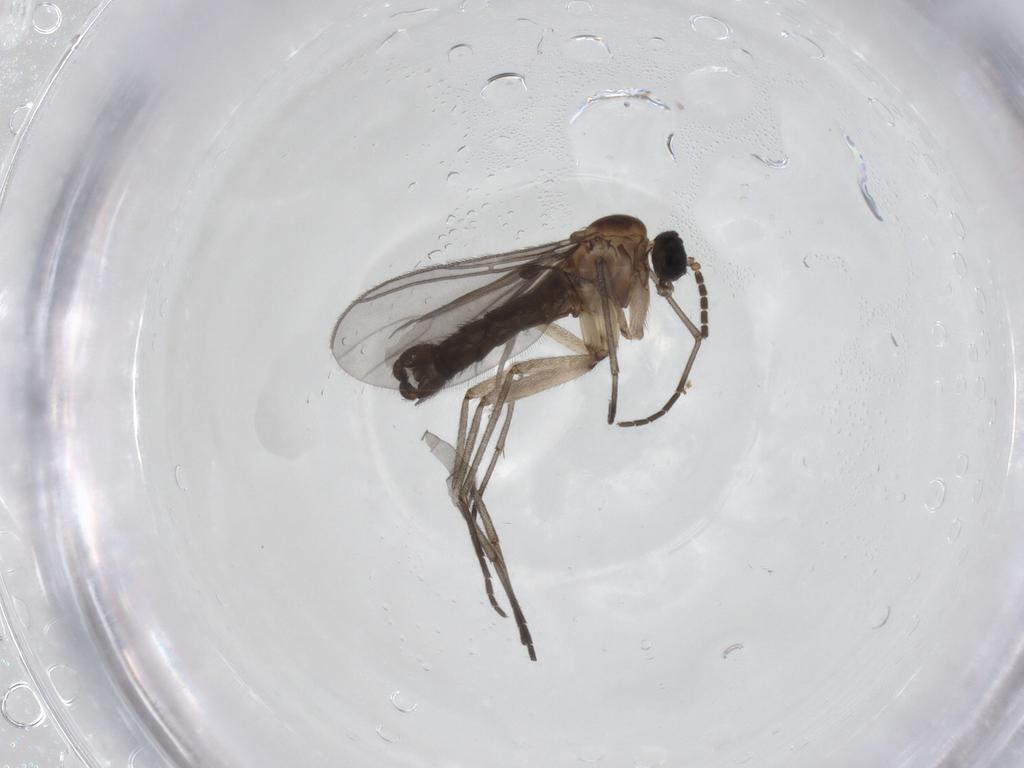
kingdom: Animalia
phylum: Arthropoda
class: Insecta
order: Diptera
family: Sciaridae
